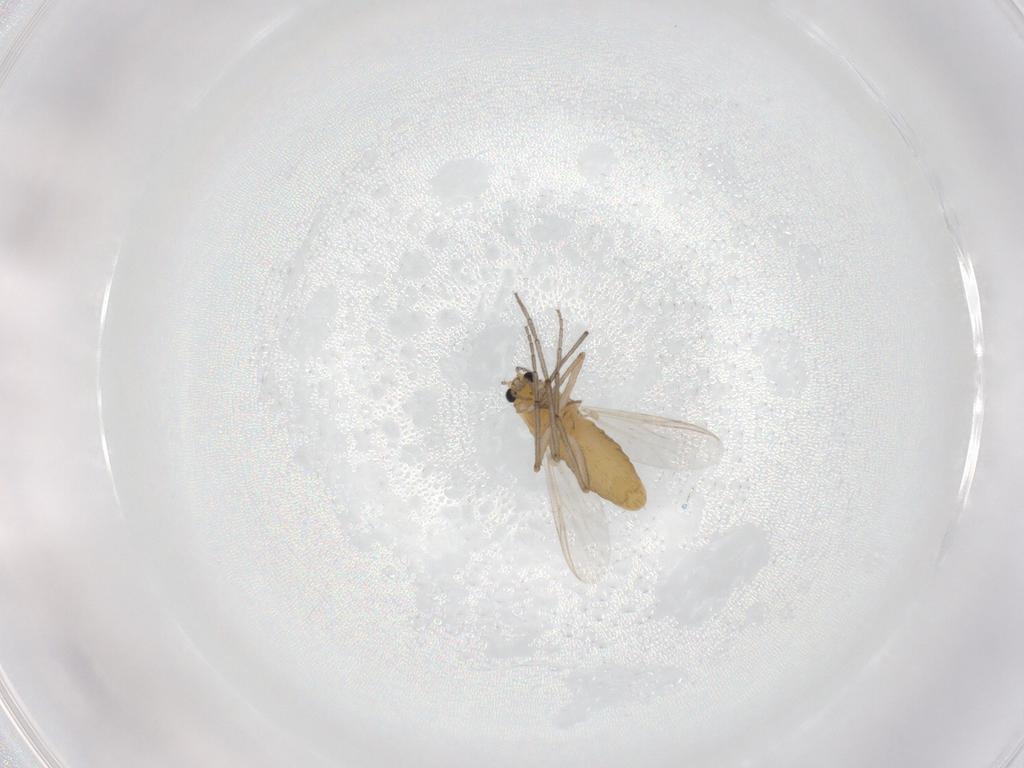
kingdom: Animalia
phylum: Arthropoda
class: Insecta
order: Diptera
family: Chironomidae
